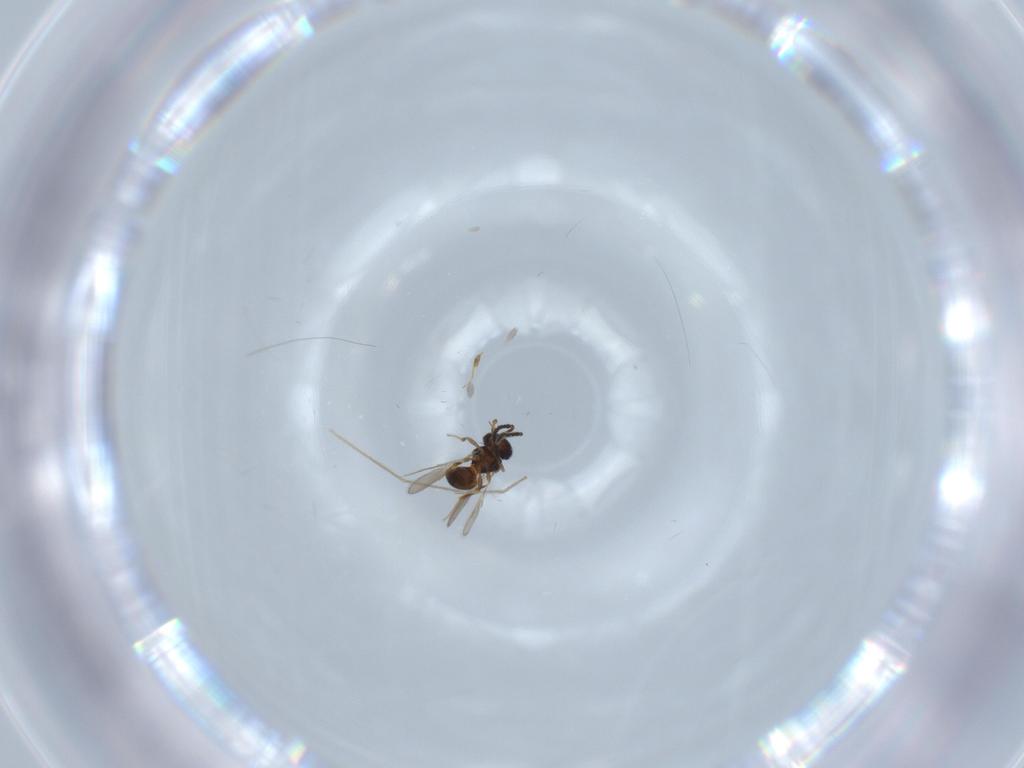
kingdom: Animalia
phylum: Arthropoda
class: Insecta
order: Hymenoptera
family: Scelionidae
